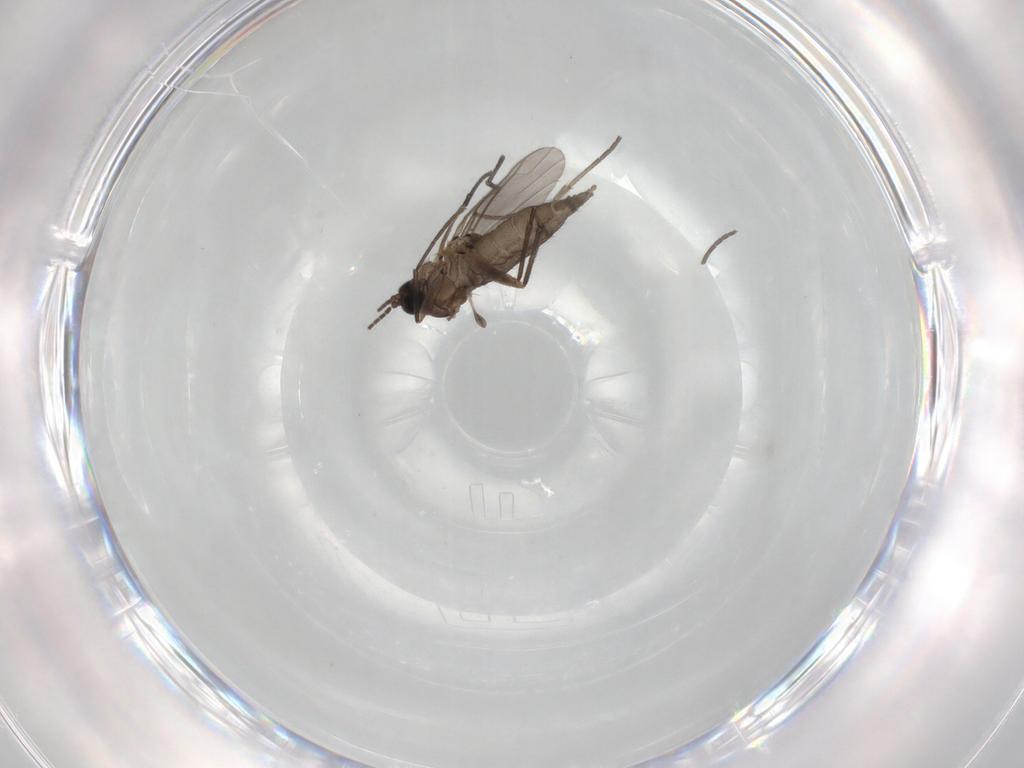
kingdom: Animalia
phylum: Arthropoda
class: Insecta
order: Diptera
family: Sciaridae
